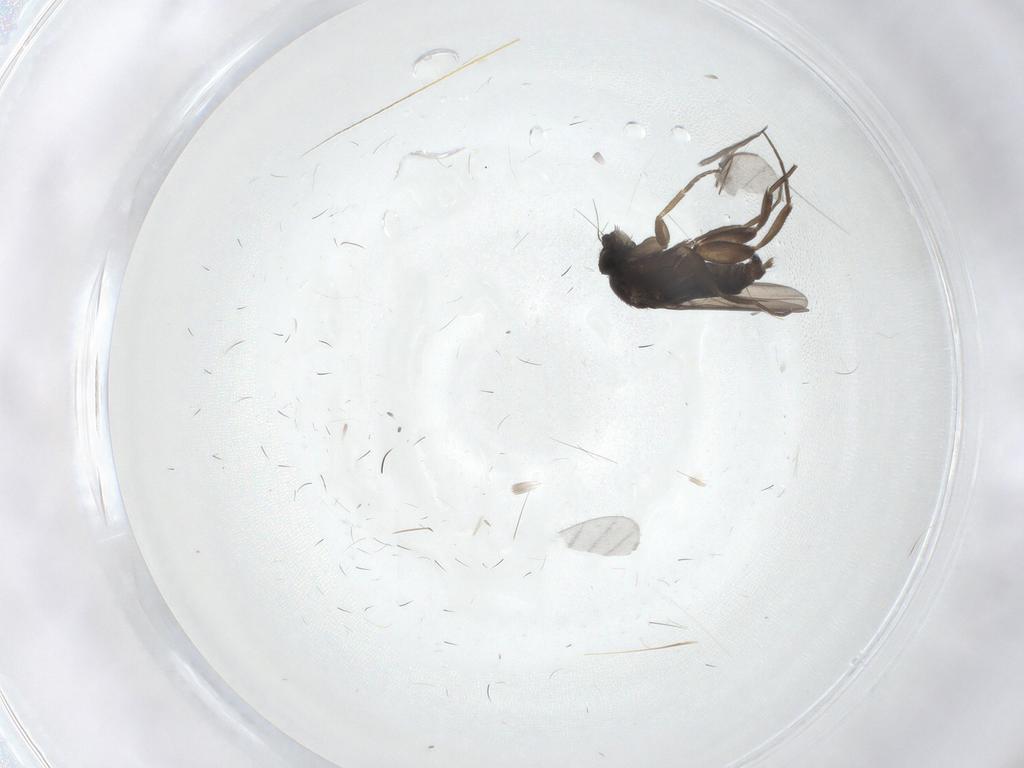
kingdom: Animalia
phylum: Arthropoda
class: Insecta
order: Diptera
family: Phoridae
